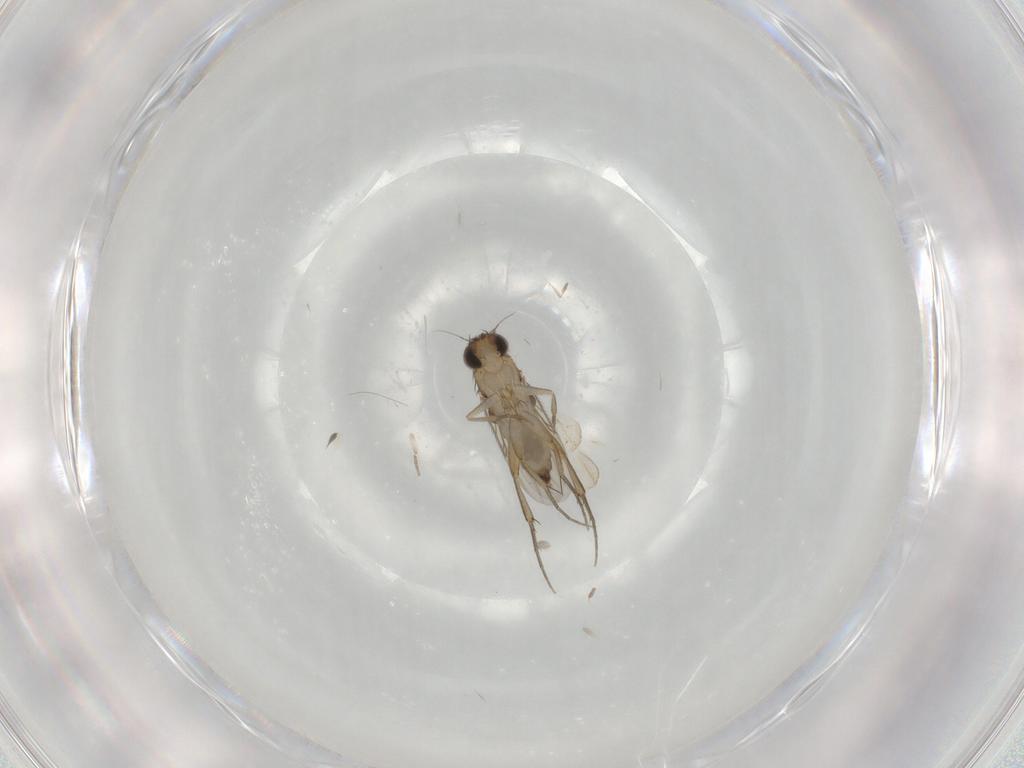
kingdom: Animalia
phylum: Arthropoda
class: Insecta
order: Diptera
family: Phoridae
